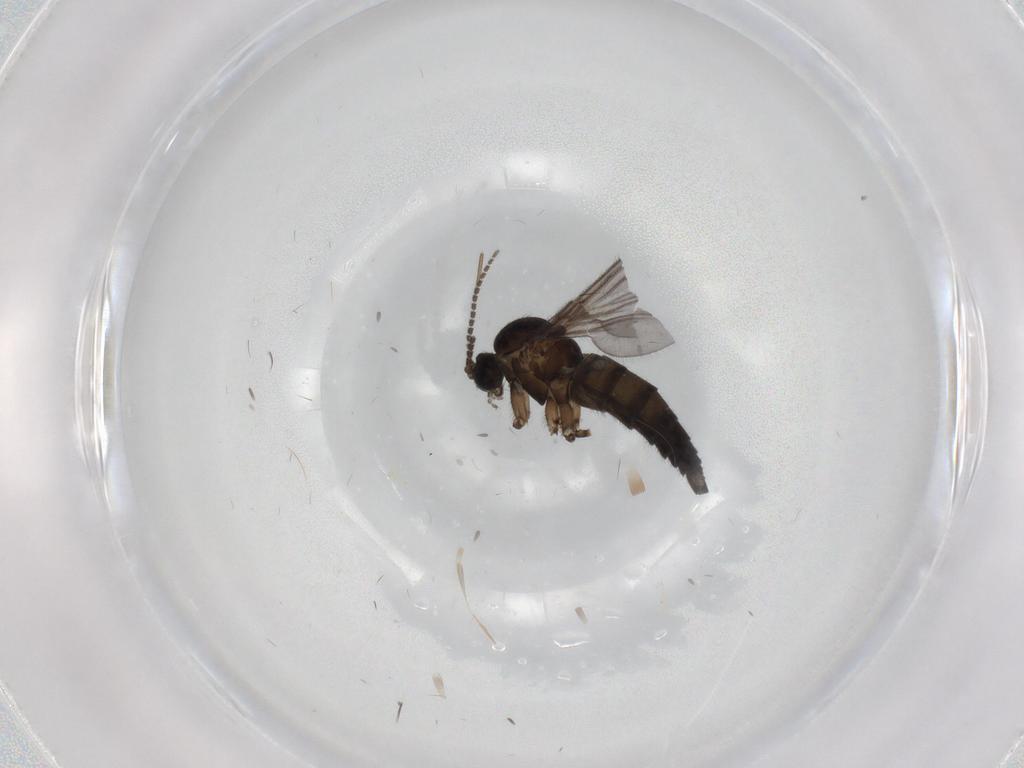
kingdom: Animalia
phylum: Arthropoda
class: Insecta
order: Diptera
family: Sciaridae
